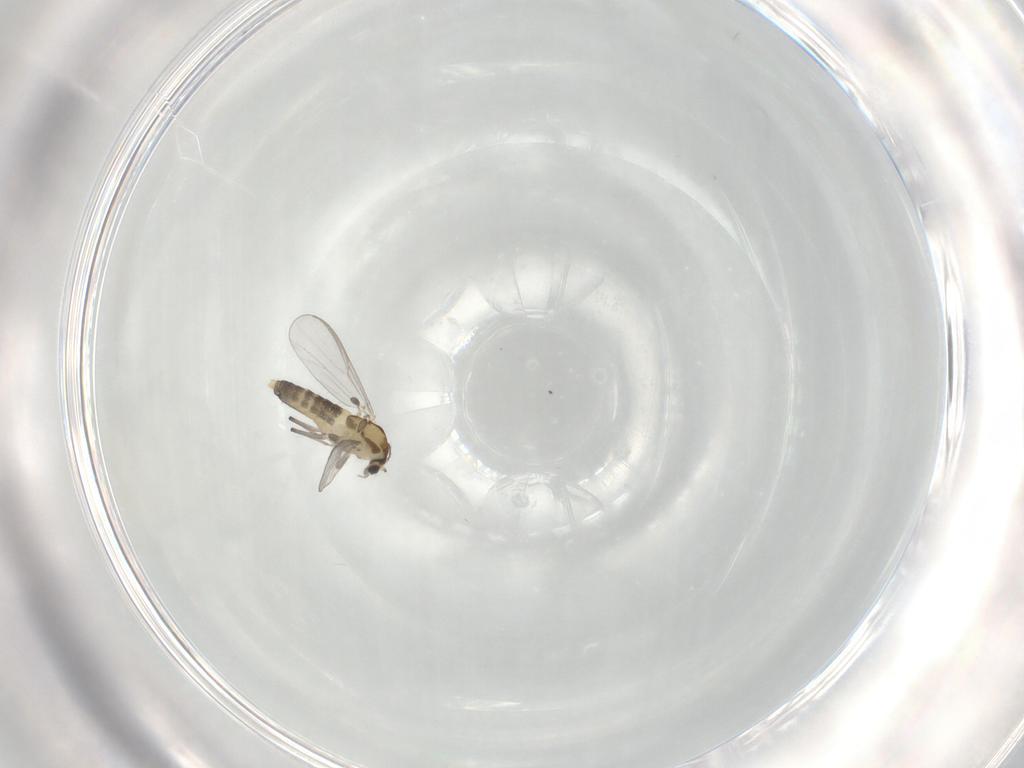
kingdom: Animalia
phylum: Arthropoda
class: Insecta
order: Diptera
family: Chironomidae
